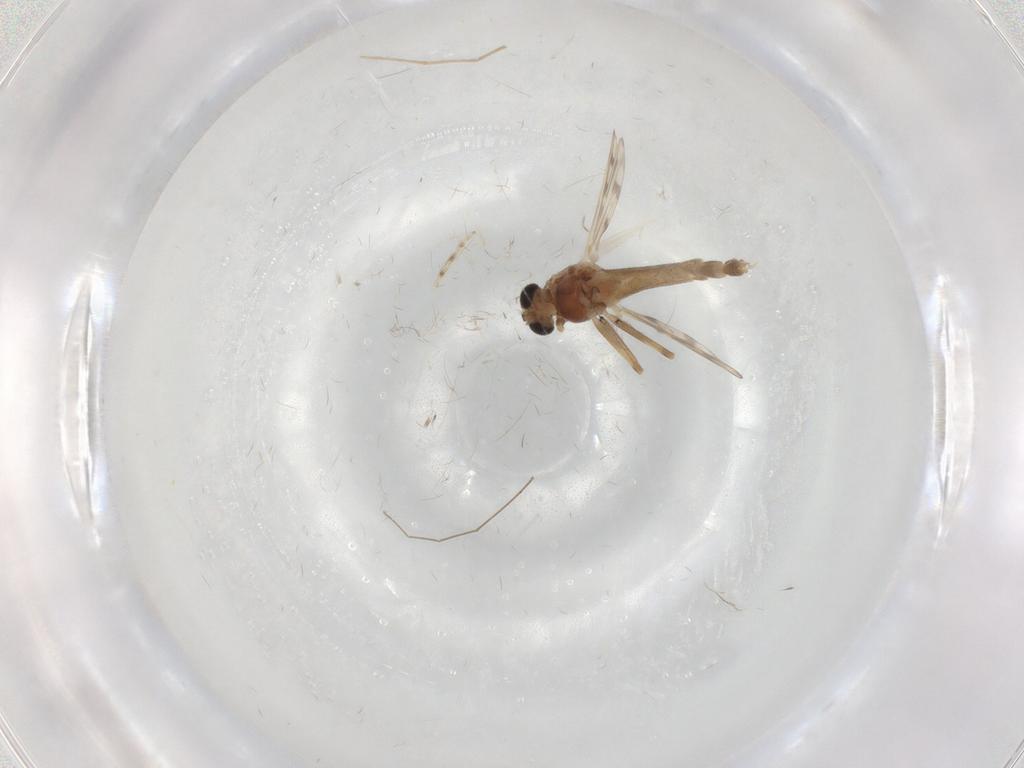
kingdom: Animalia
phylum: Arthropoda
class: Insecta
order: Diptera
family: Chironomidae
